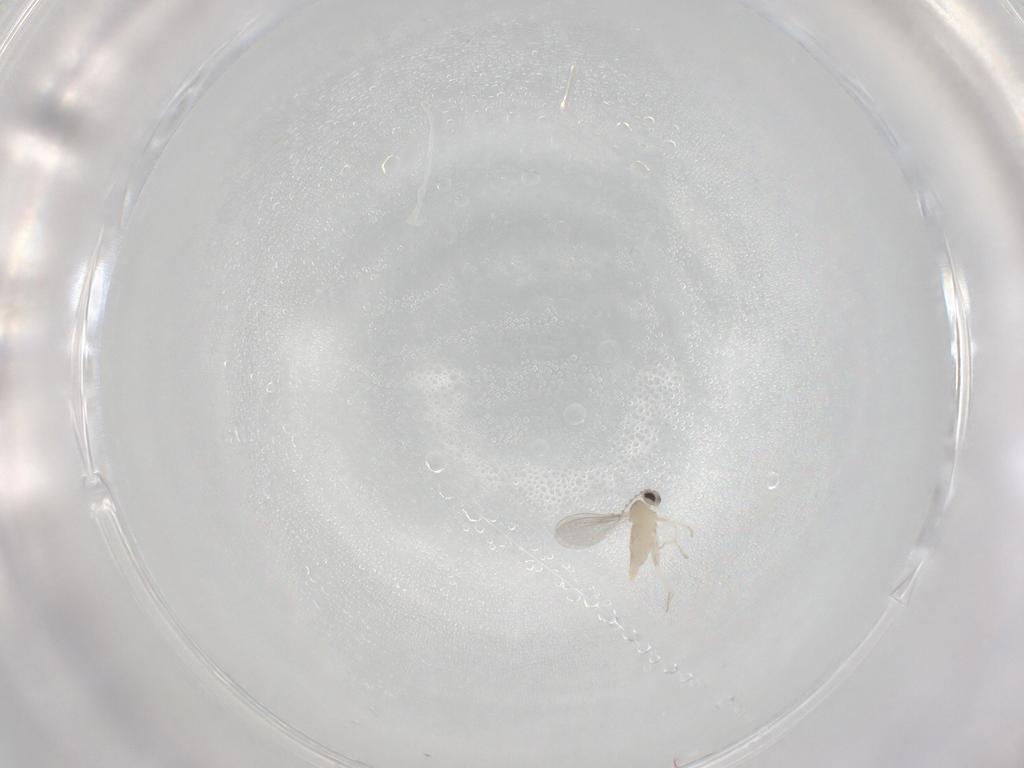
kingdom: Animalia
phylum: Arthropoda
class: Insecta
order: Diptera
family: Cecidomyiidae
